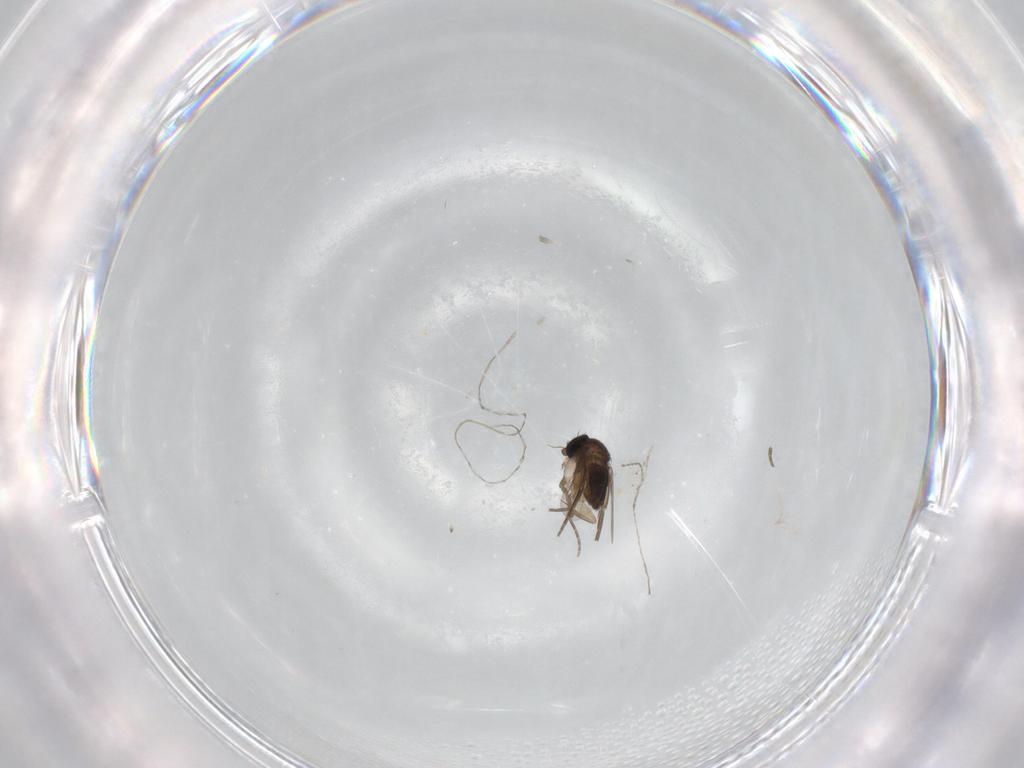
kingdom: Animalia
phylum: Arthropoda
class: Insecta
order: Diptera
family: Phoridae
